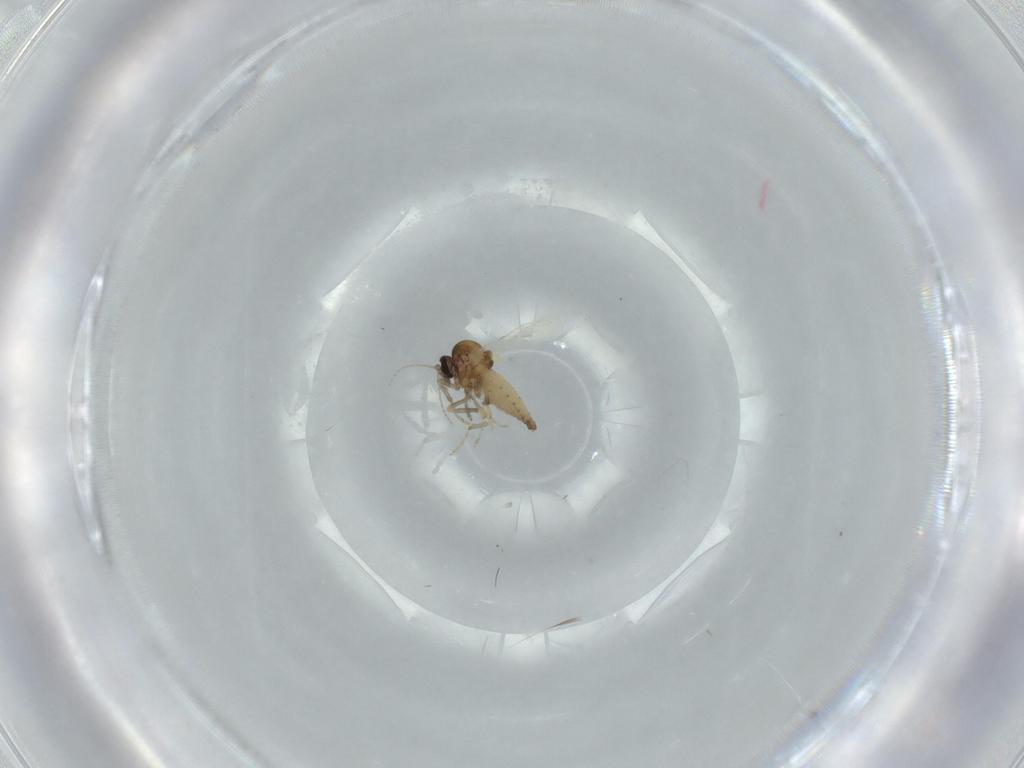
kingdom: Animalia
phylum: Arthropoda
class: Insecta
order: Diptera
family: Ceratopogonidae
